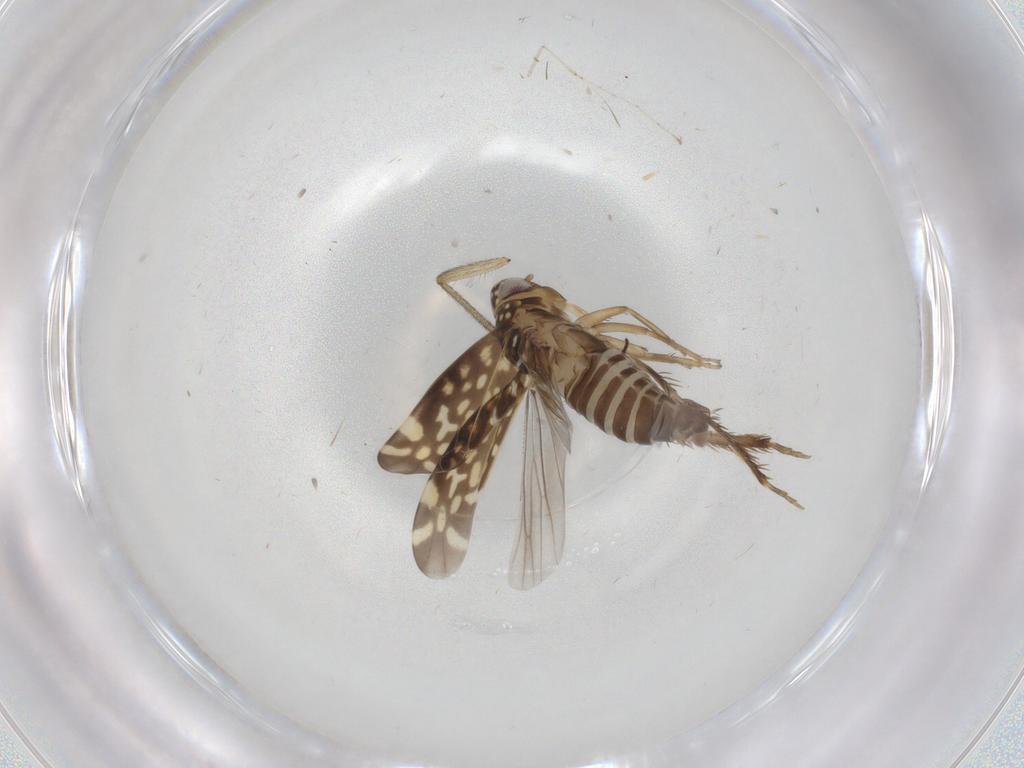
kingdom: Animalia
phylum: Arthropoda
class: Insecta
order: Hemiptera
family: Cicadellidae
